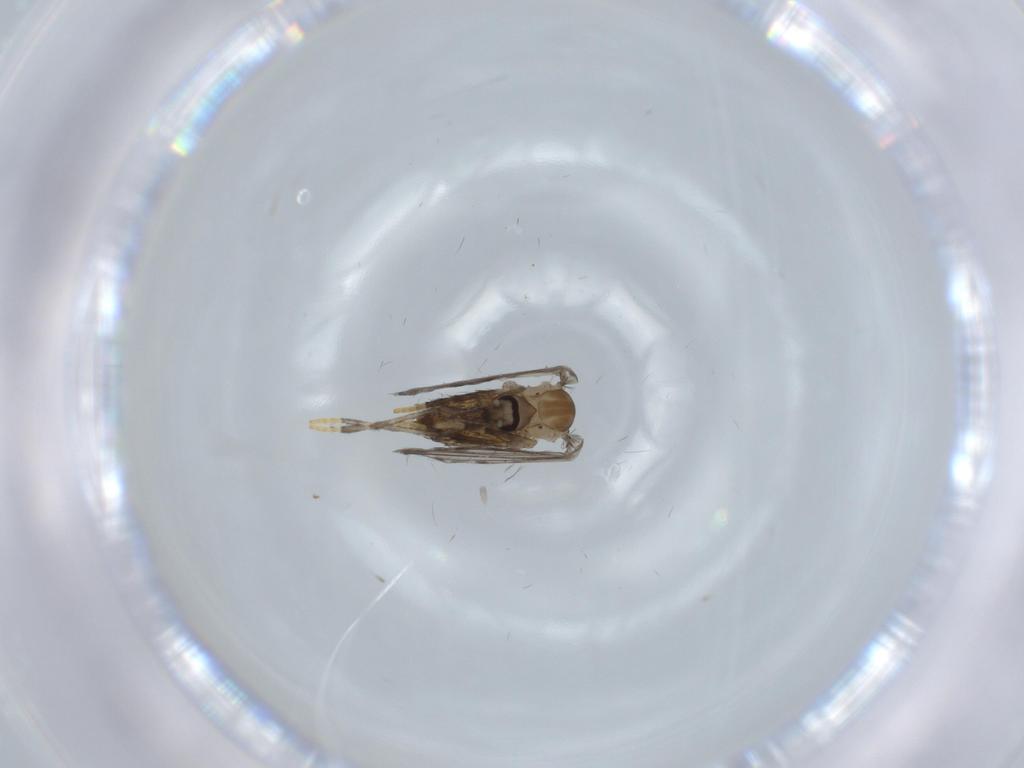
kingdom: Animalia
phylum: Arthropoda
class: Insecta
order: Diptera
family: Psychodidae
